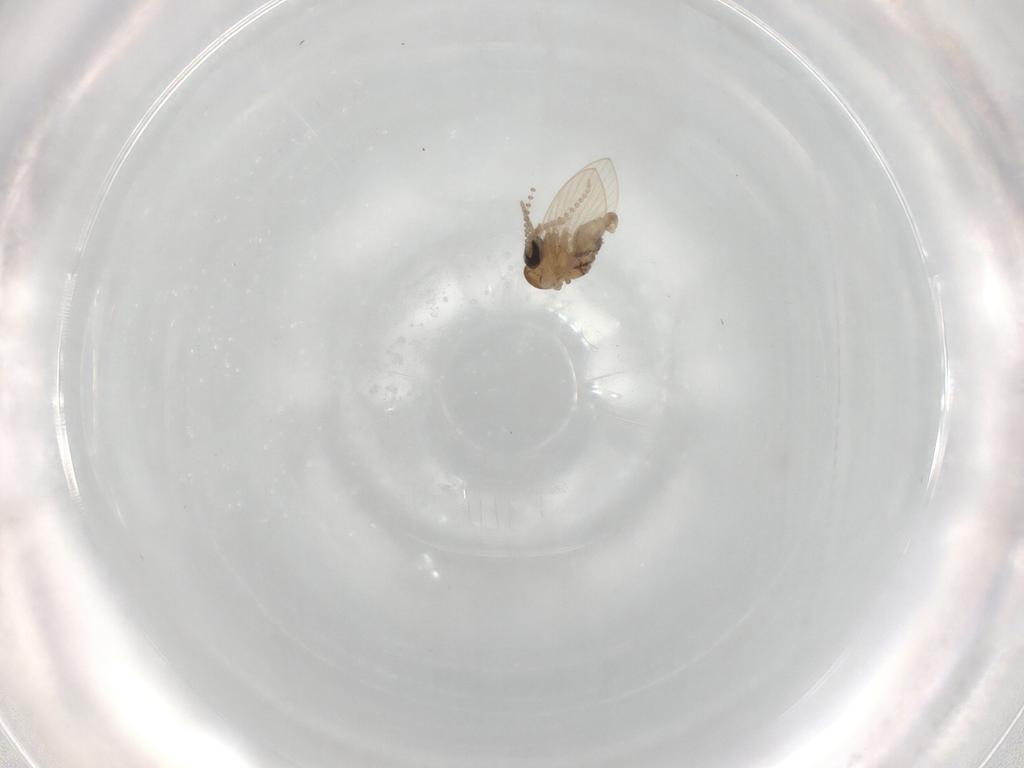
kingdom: Animalia
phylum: Arthropoda
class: Insecta
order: Diptera
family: Psychodidae
